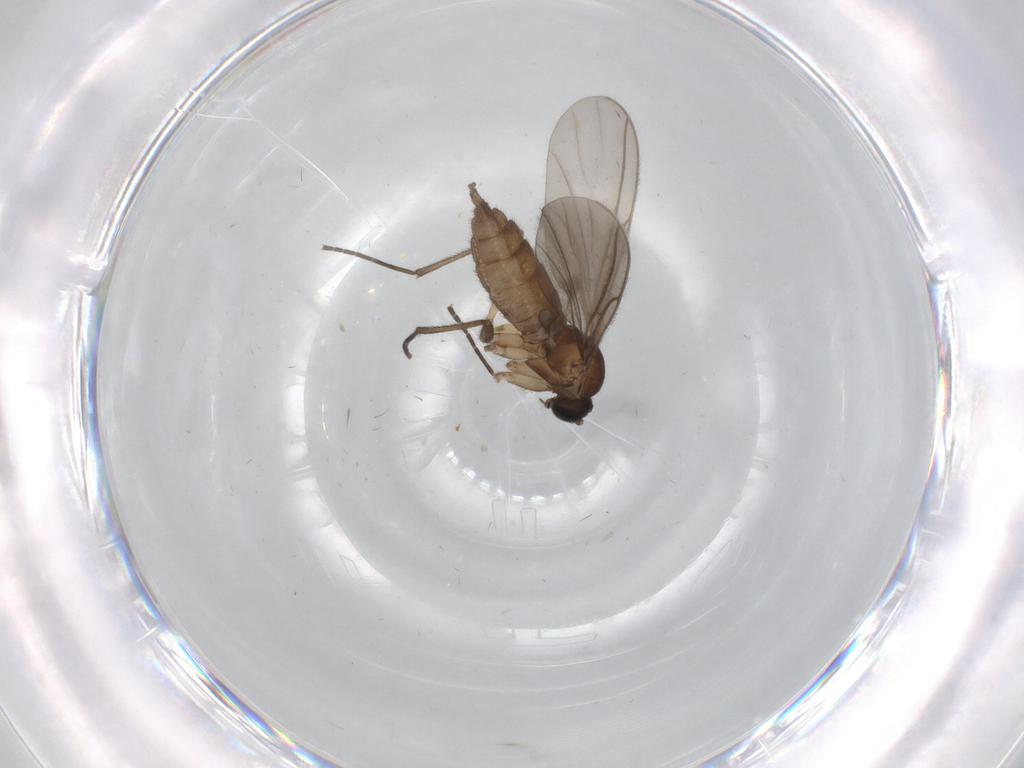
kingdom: Animalia
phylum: Arthropoda
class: Insecta
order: Diptera
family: Sciaridae
